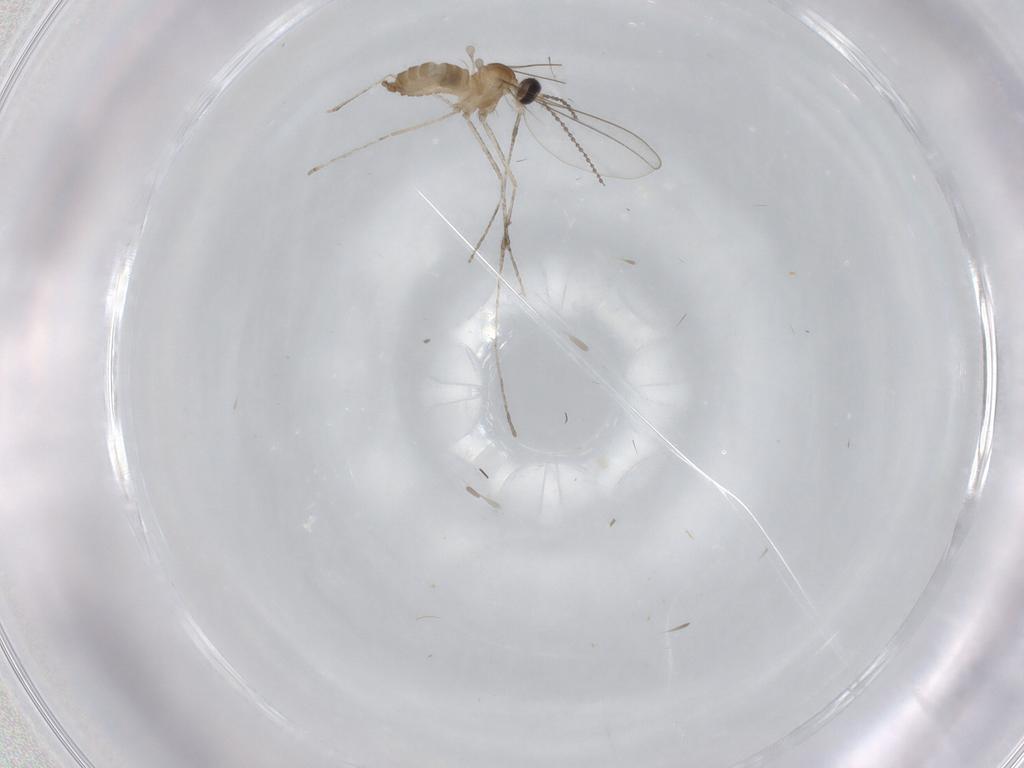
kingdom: Animalia
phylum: Arthropoda
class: Insecta
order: Diptera
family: Cecidomyiidae
